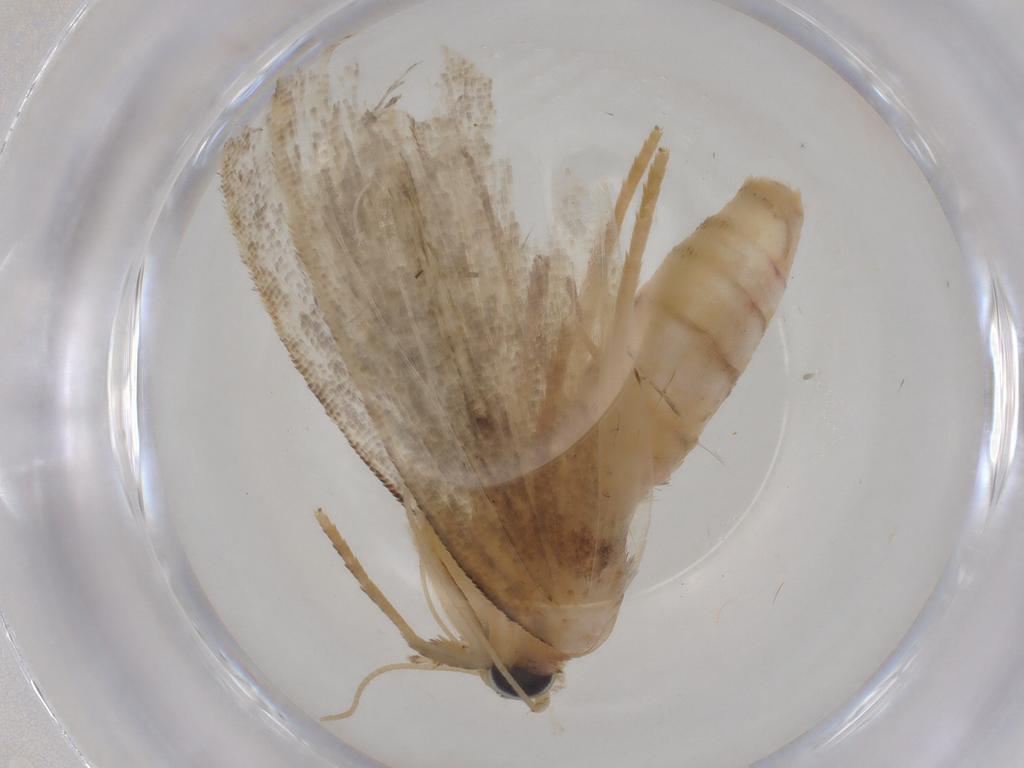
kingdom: Animalia
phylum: Arthropoda
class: Insecta
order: Lepidoptera
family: Erebidae
